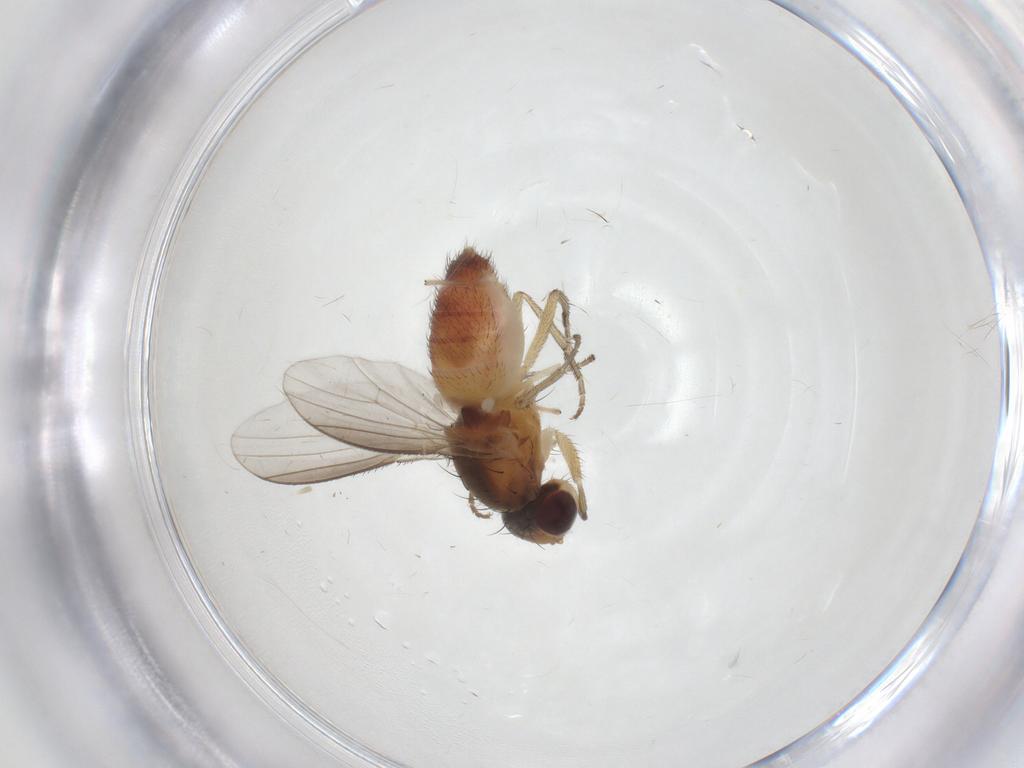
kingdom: Animalia
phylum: Arthropoda
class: Insecta
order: Diptera
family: Heleomyzidae
